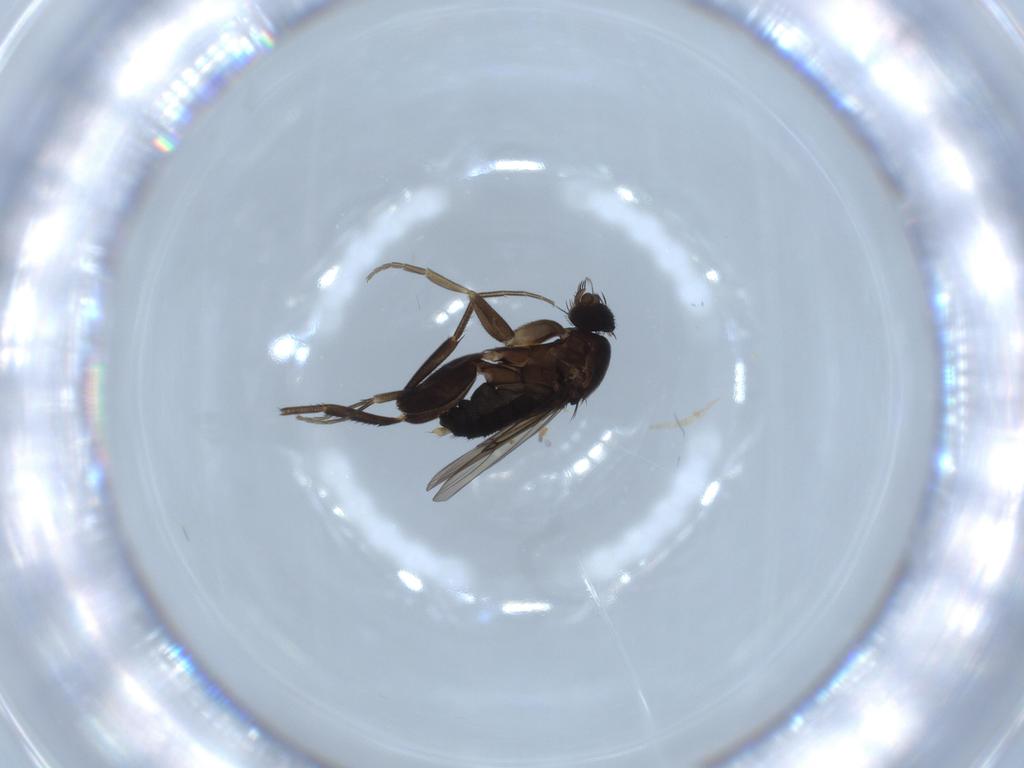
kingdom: Animalia
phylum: Arthropoda
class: Insecta
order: Diptera
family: Phoridae
